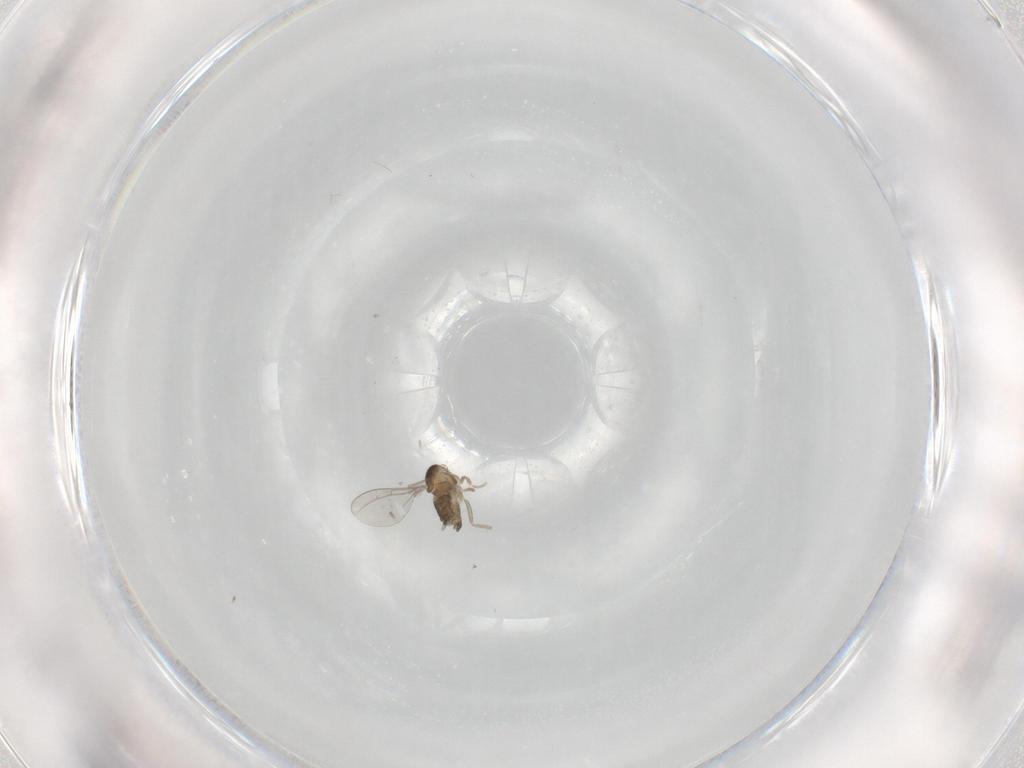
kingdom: Animalia
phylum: Arthropoda
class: Insecta
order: Diptera
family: Cecidomyiidae
